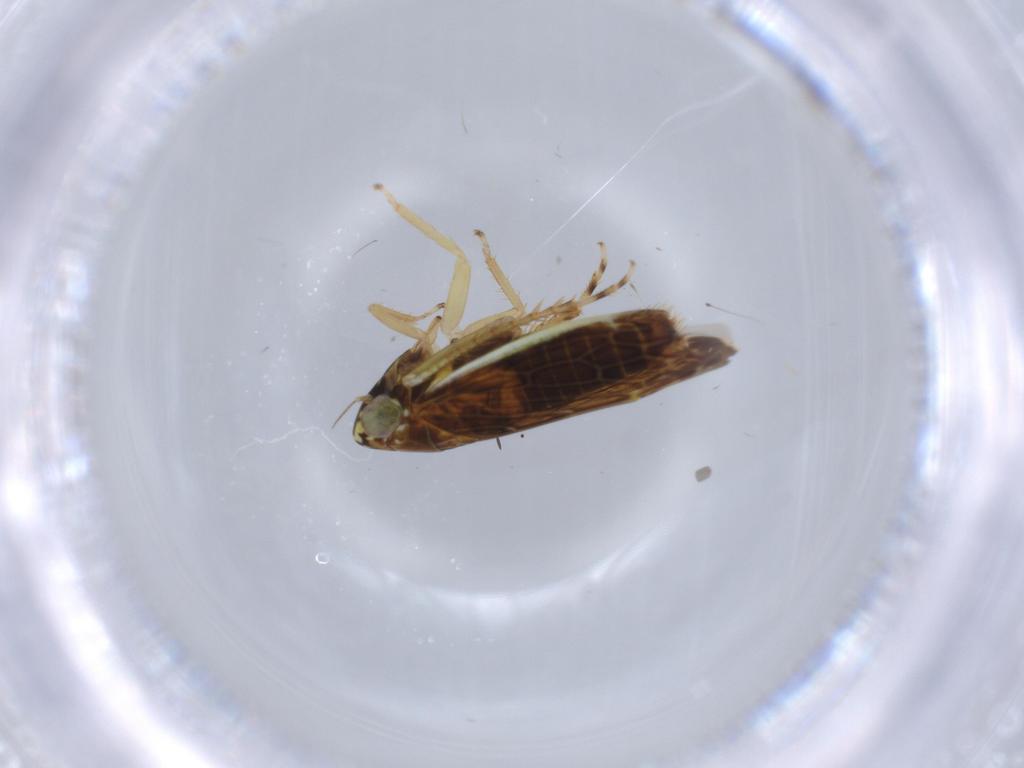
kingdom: Animalia
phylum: Arthropoda
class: Insecta
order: Hemiptera
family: Cicadellidae
